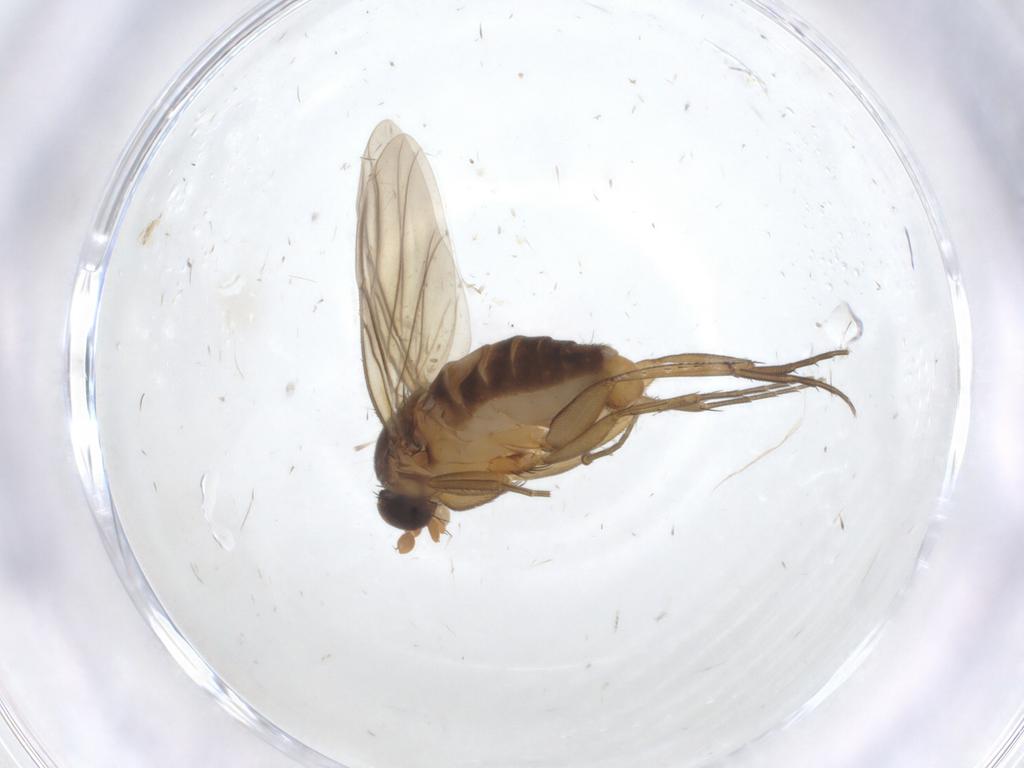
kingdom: Animalia
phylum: Arthropoda
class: Insecta
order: Diptera
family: Phoridae
